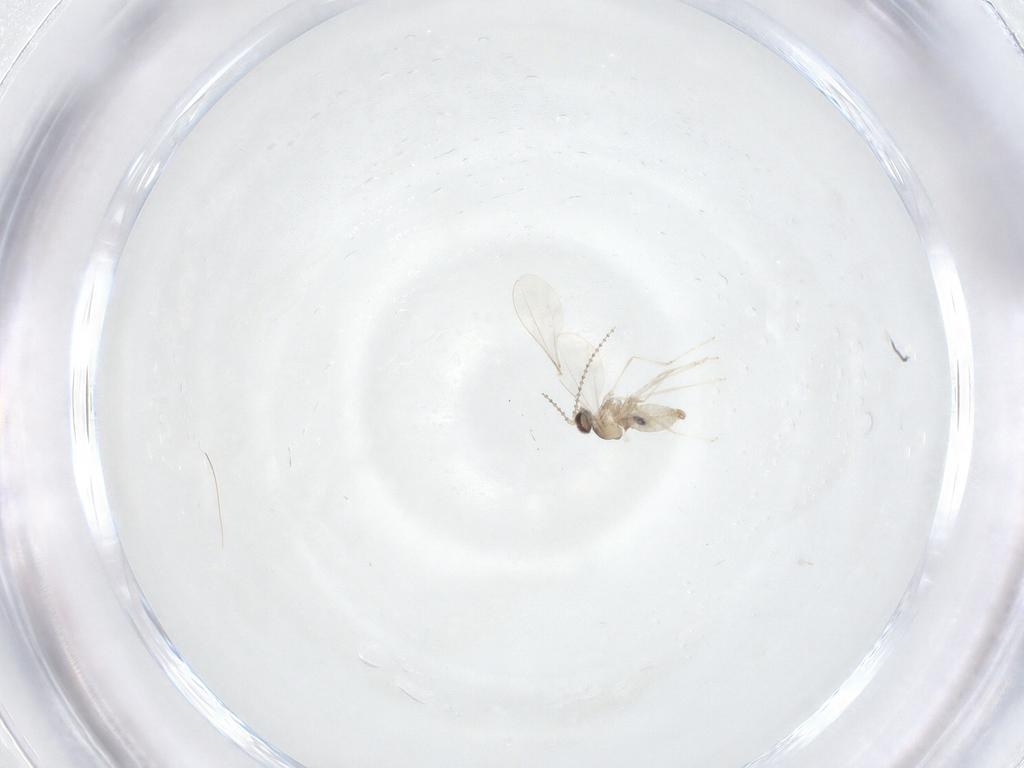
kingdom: Animalia
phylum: Arthropoda
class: Insecta
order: Diptera
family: Cecidomyiidae
